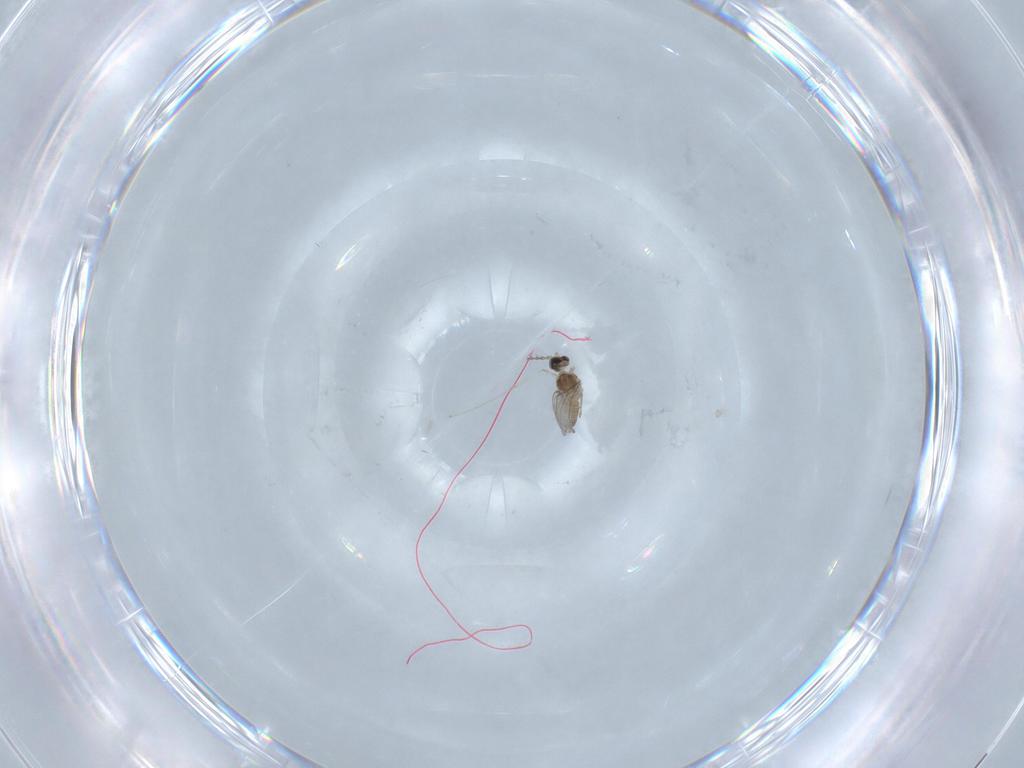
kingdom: Animalia
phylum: Arthropoda
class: Insecta
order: Diptera
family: Cecidomyiidae
